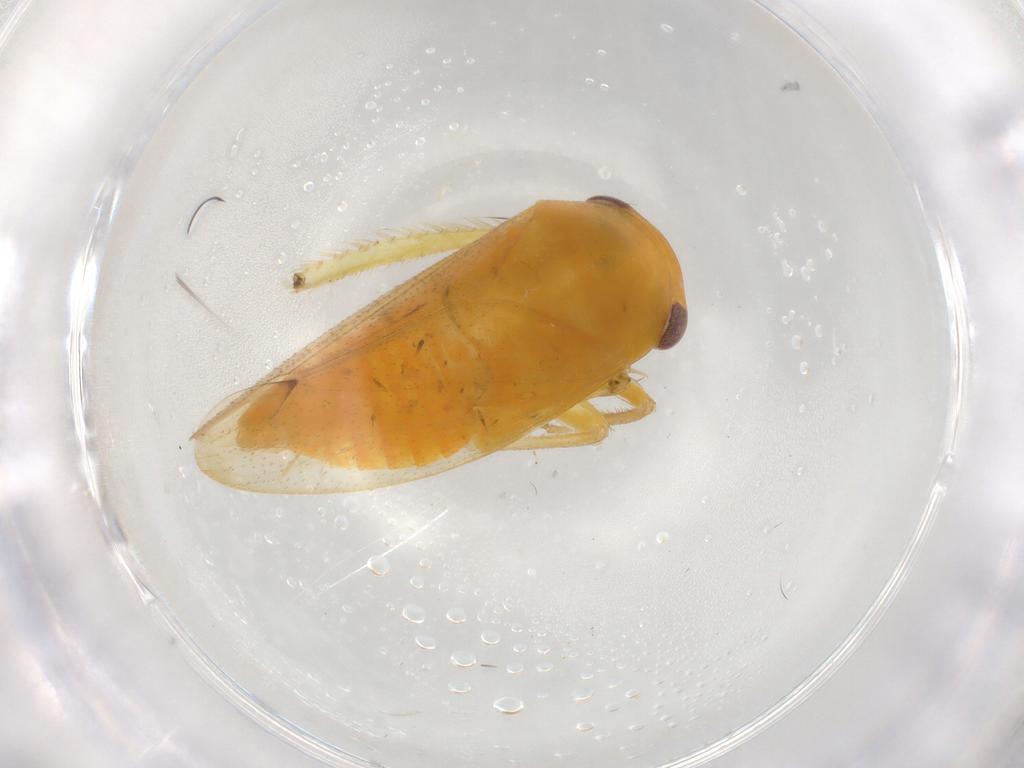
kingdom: Animalia
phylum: Arthropoda
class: Insecta
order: Hemiptera
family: Cicadellidae
